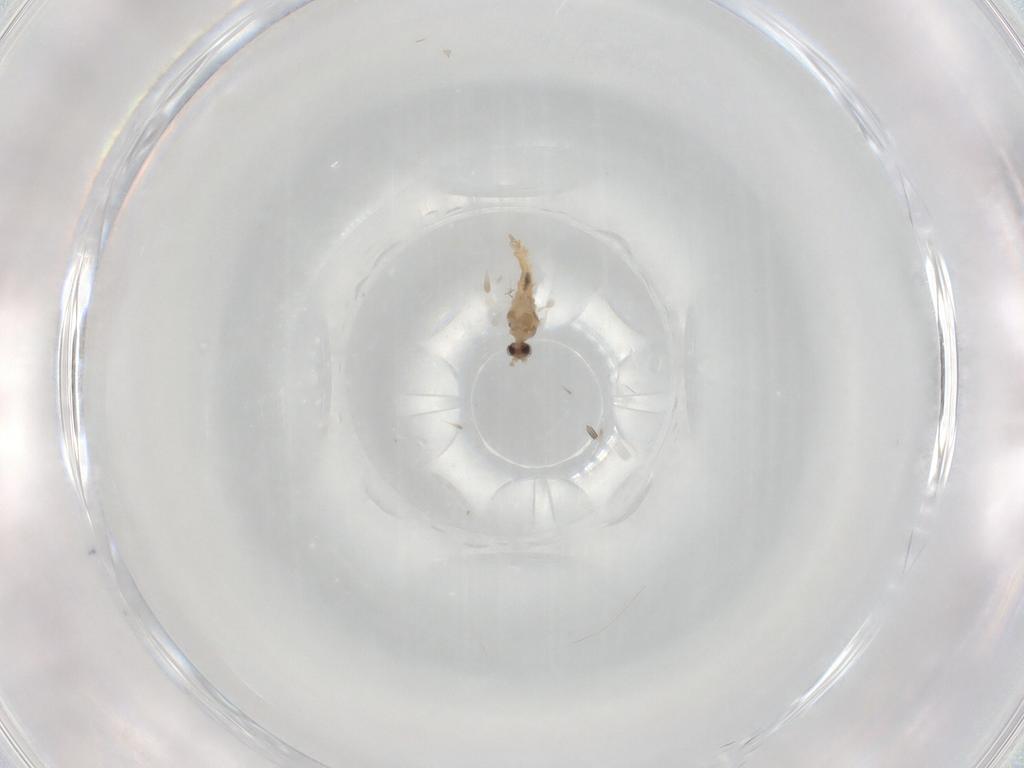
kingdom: Animalia
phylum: Arthropoda
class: Insecta
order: Diptera
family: Cecidomyiidae
